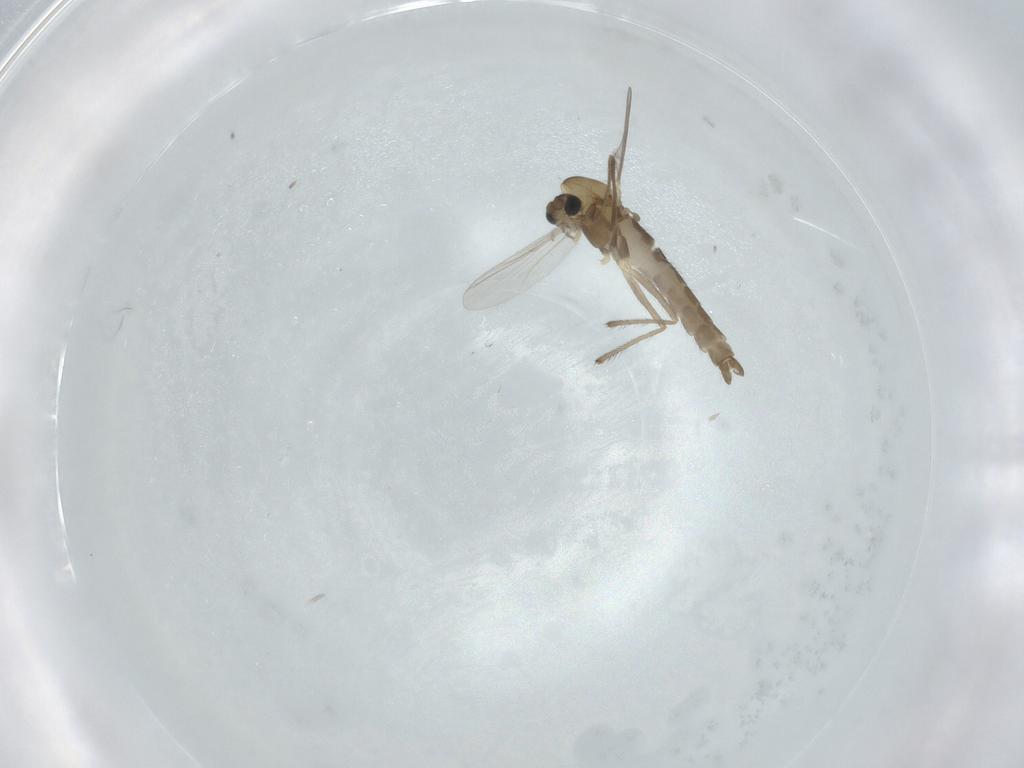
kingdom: Animalia
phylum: Arthropoda
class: Insecta
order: Diptera
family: Chironomidae
